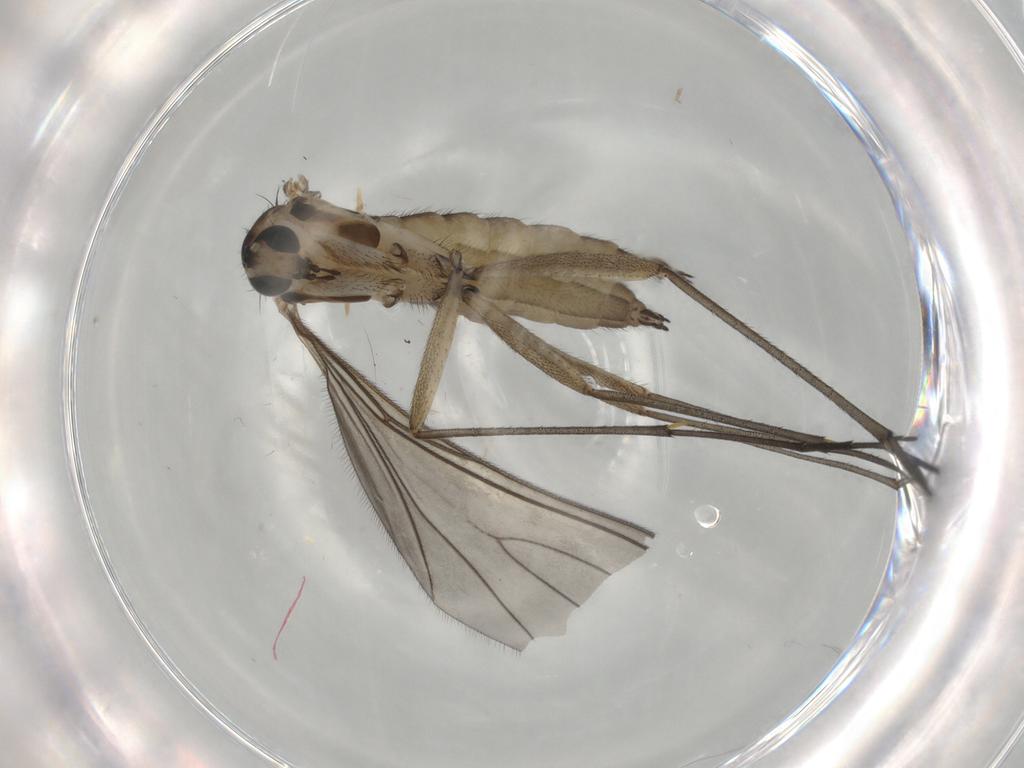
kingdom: Animalia
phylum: Arthropoda
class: Insecta
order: Diptera
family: Sciaridae
